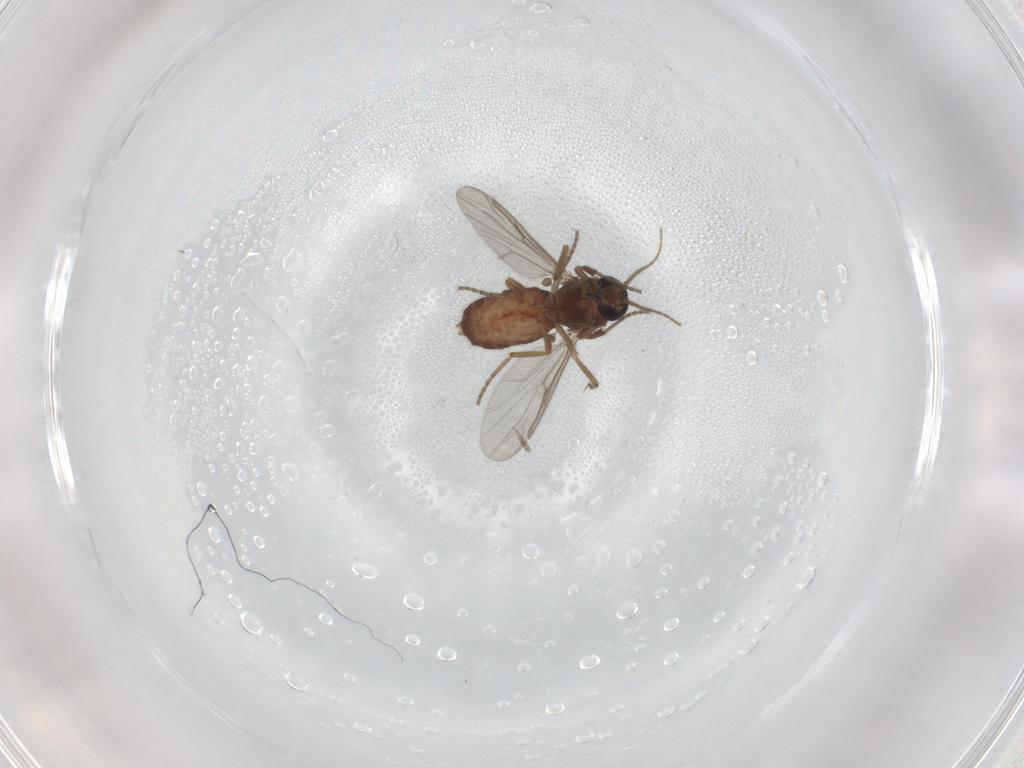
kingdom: Animalia
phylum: Arthropoda
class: Insecta
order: Diptera
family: Ceratopogonidae
